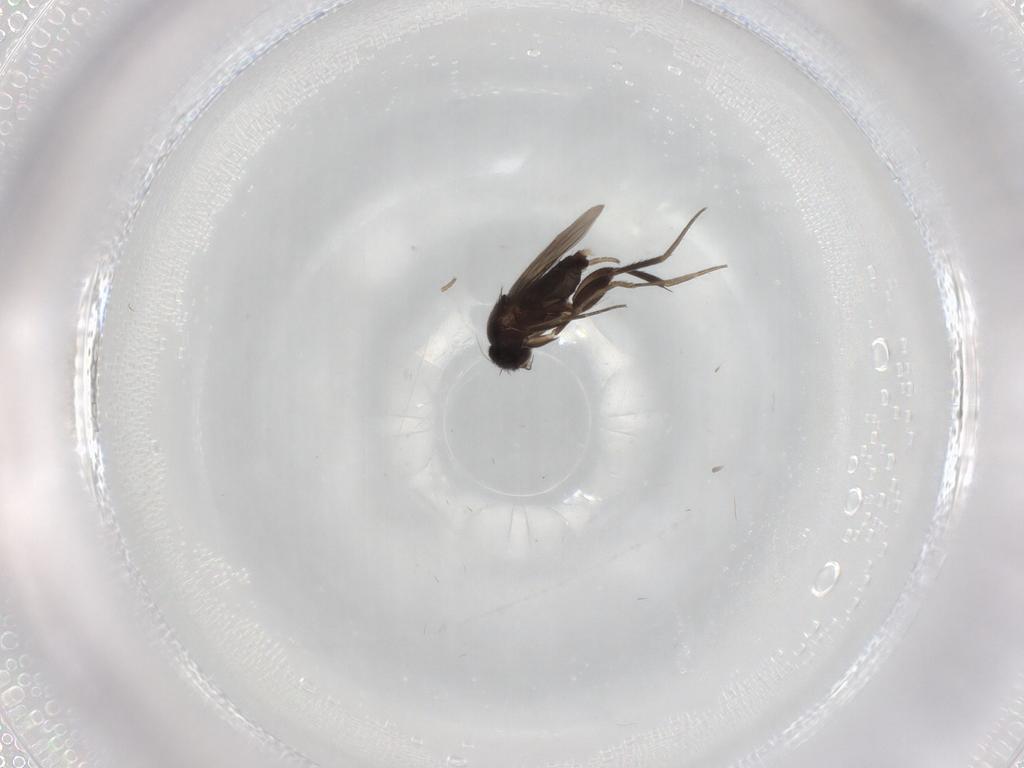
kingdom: Animalia
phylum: Arthropoda
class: Insecta
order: Diptera
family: Phoridae
